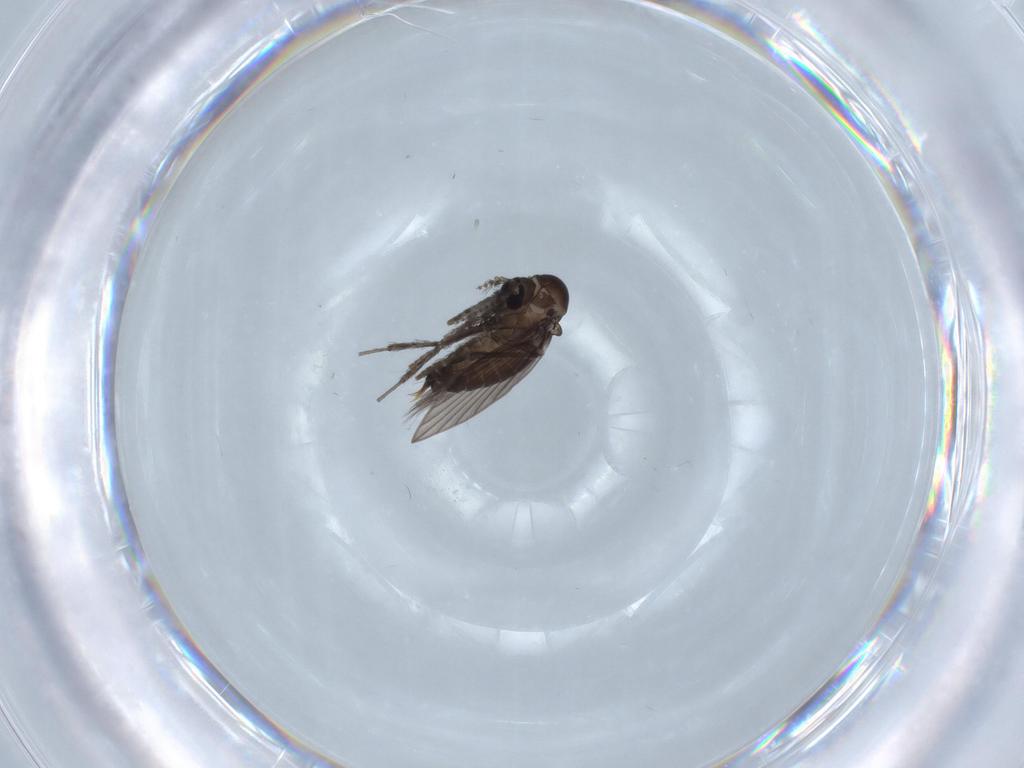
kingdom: Animalia
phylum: Arthropoda
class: Insecta
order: Diptera
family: Psychodidae
